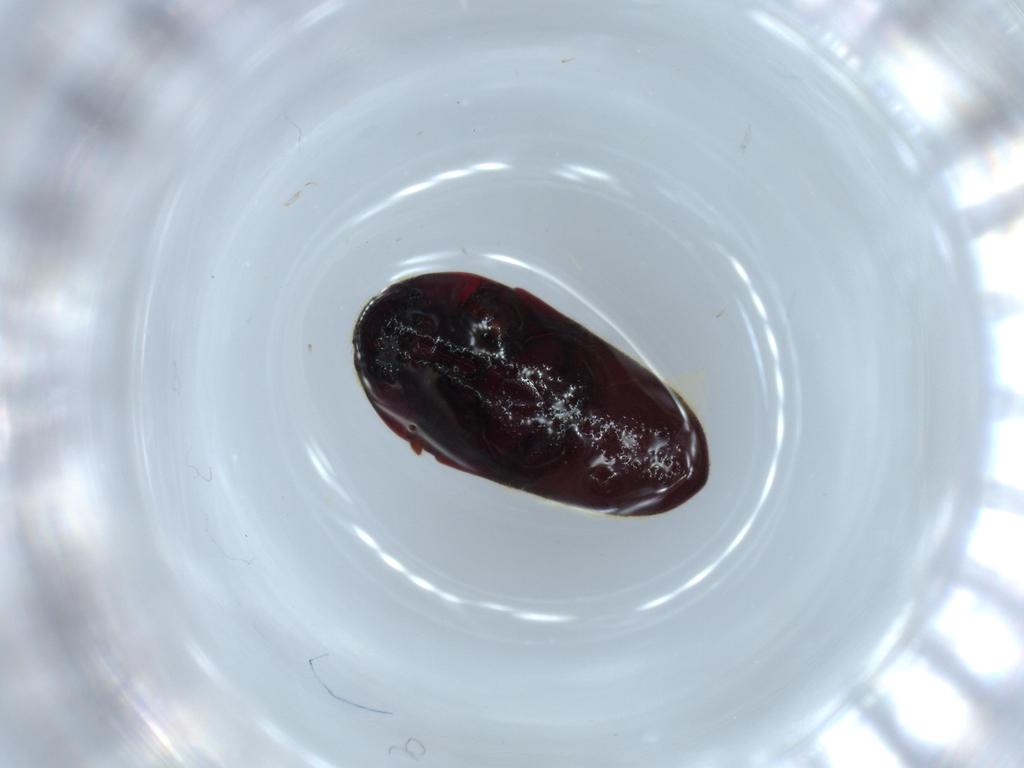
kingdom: Animalia
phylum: Arthropoda
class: Insecta
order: Coleoptera
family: Throscidae
